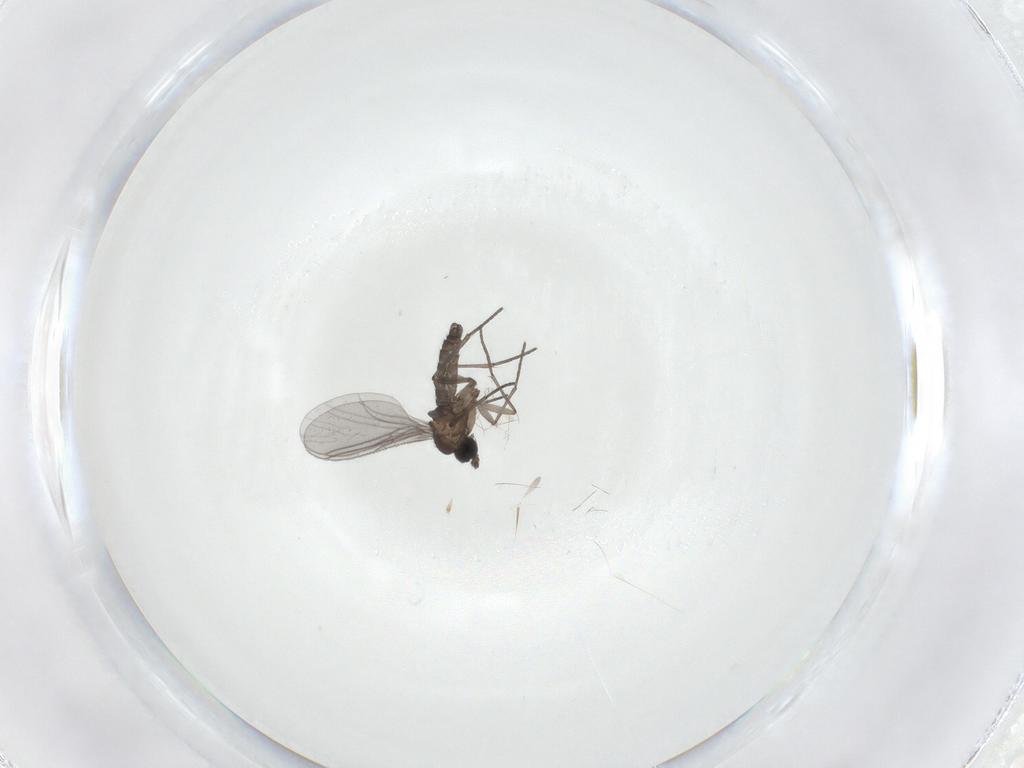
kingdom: Animalia
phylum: Arthropoda
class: Insecta
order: Diptera
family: Sciaridae
